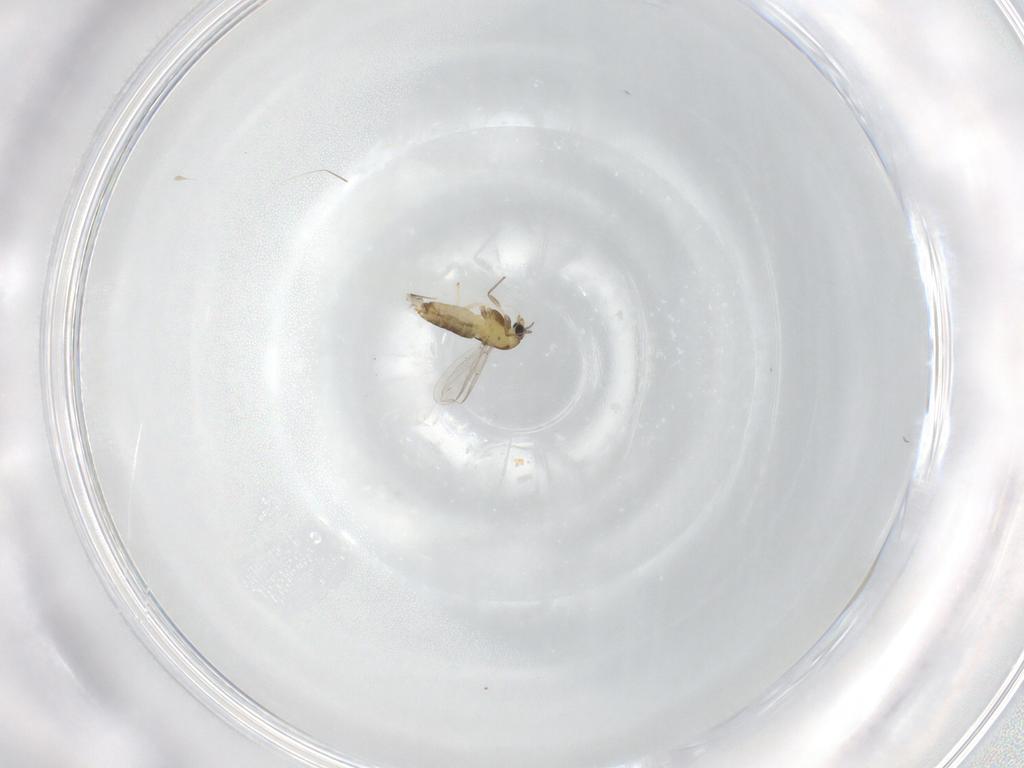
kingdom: Animalia
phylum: Arthropoda
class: Insecta
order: Diptera
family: Chironomidae
